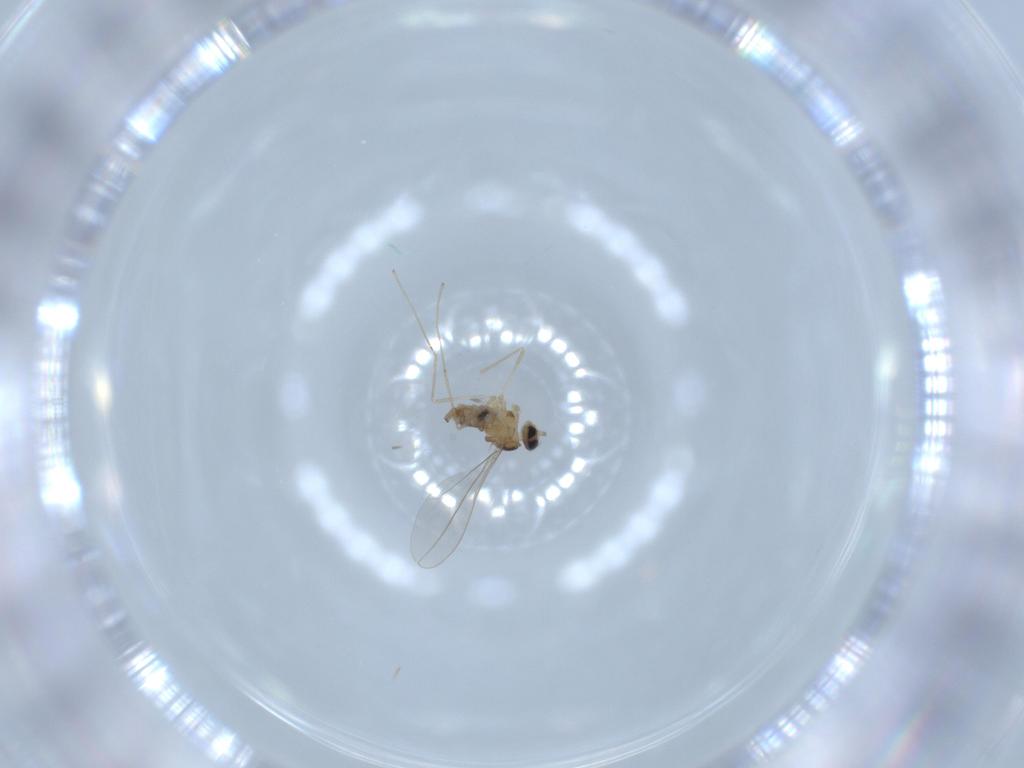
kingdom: Animalia
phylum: Arthropoda
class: Insecta
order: Diptera
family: Cecidomyiidae
